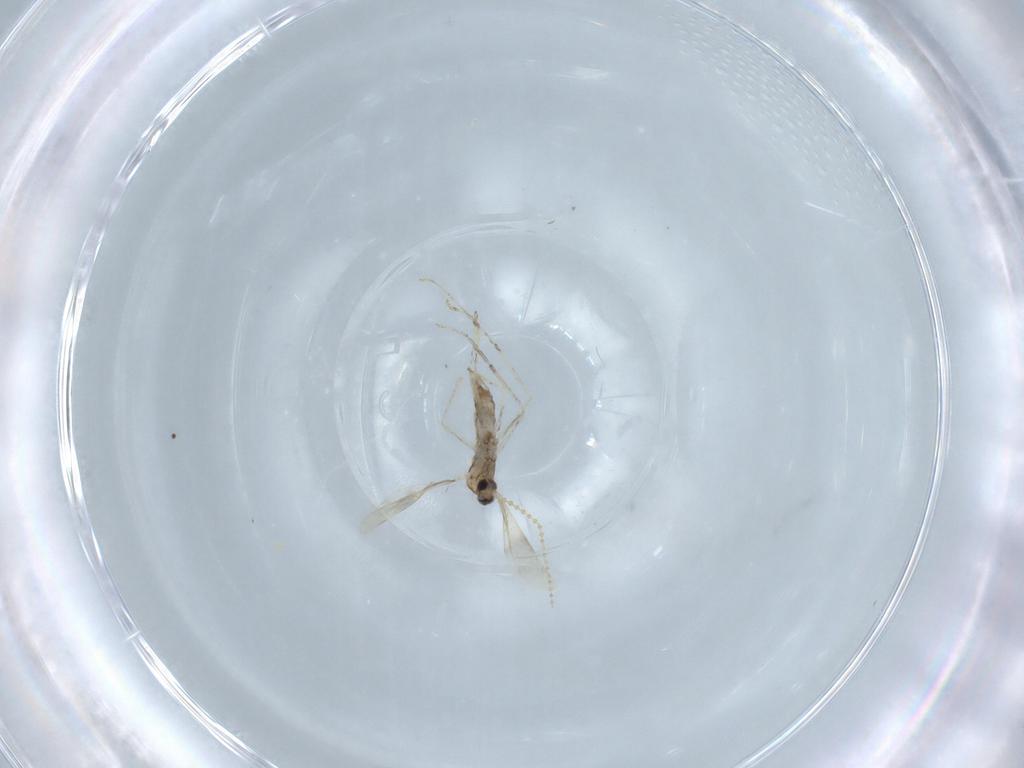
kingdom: Animalia
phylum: Arthropoda
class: Insecta
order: Diptera
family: Cecidomyiidae
